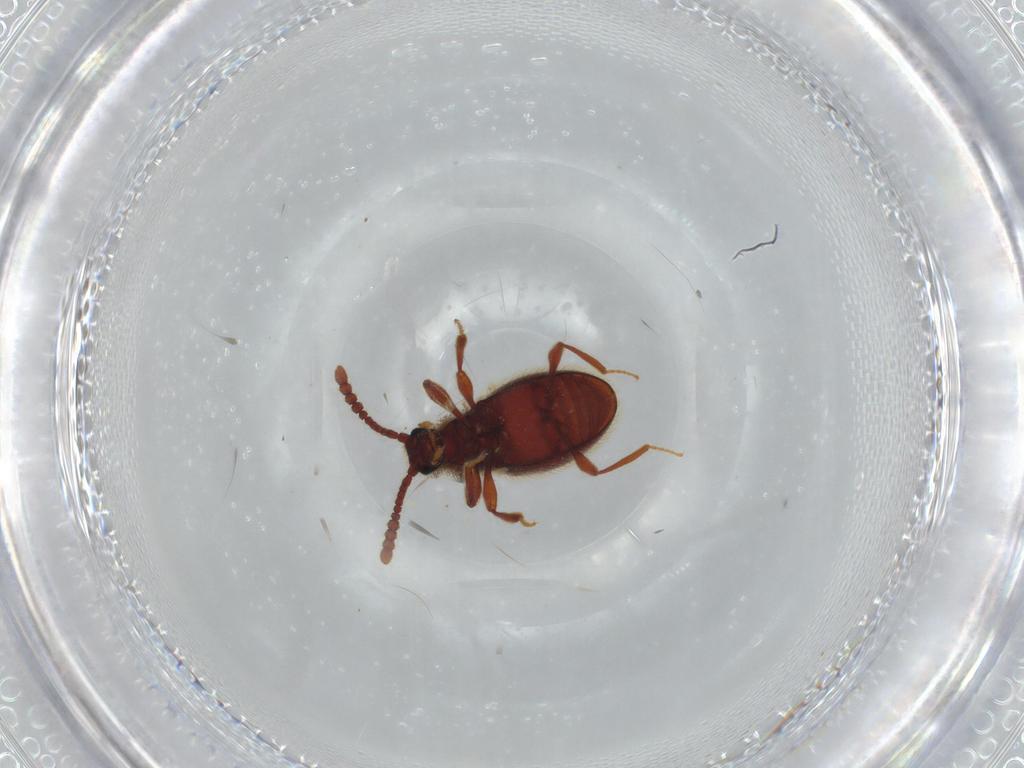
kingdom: Animalia
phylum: Arthropoda
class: Insecta
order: Coleoptera
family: Staphylinidae
